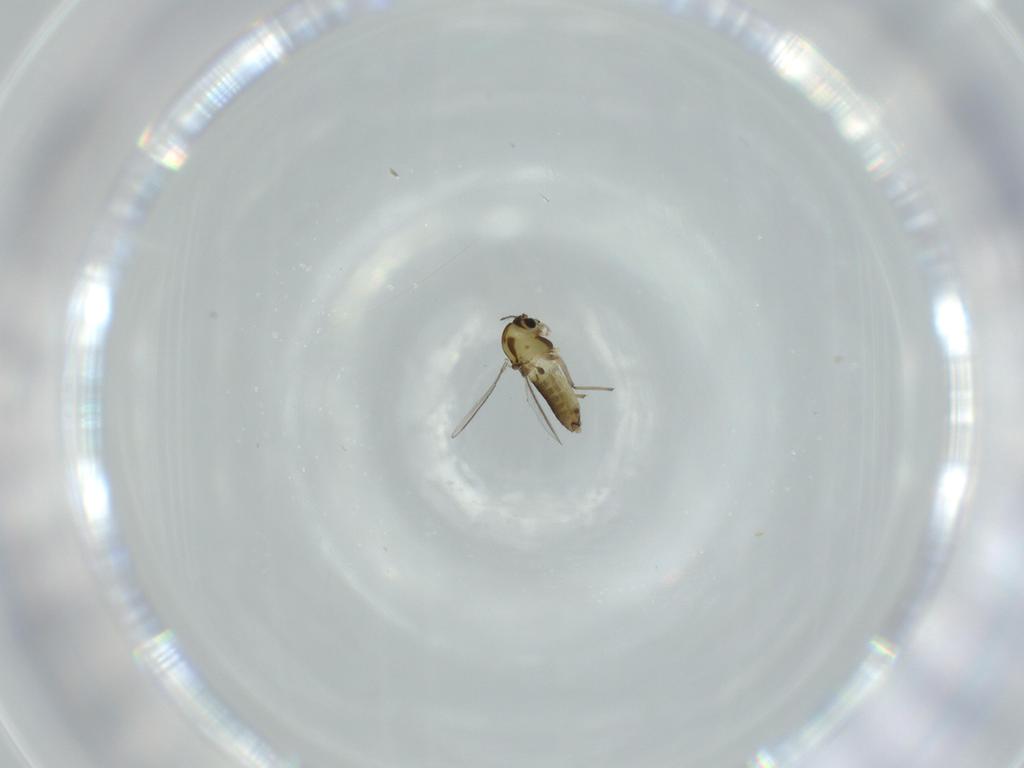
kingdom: Animalia
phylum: Arthropoda
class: Insecta
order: Diptera
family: Chironomidae
